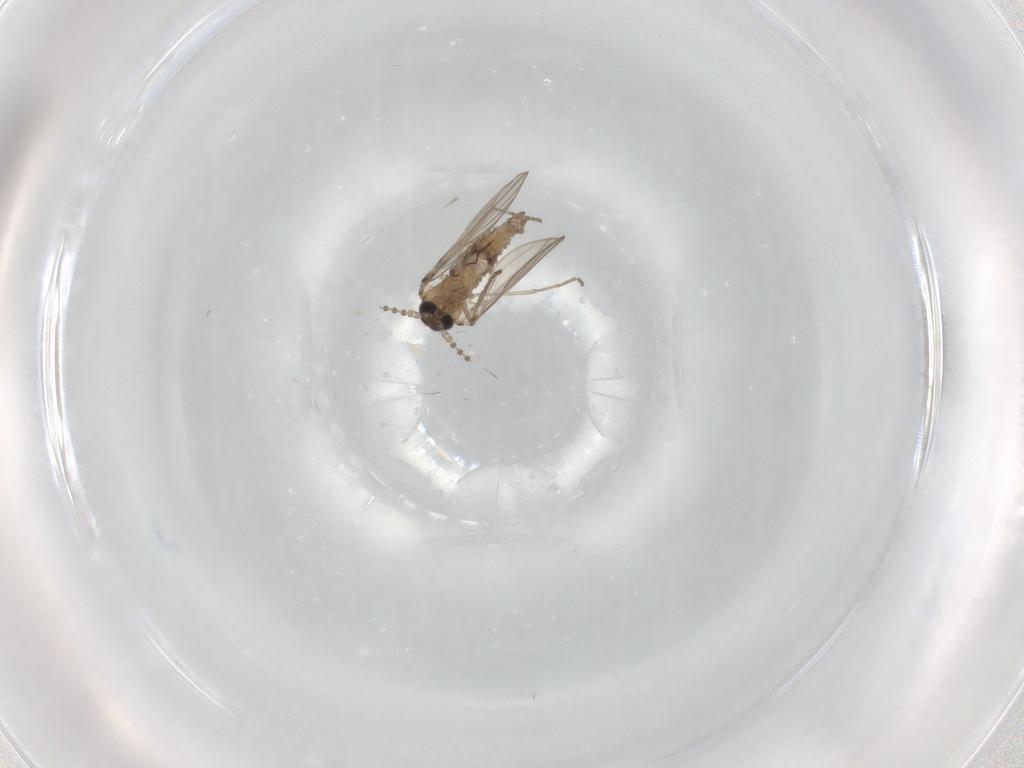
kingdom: Animalia
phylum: Arthropoda
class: Insecta
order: Diptera
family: Psychodidae
